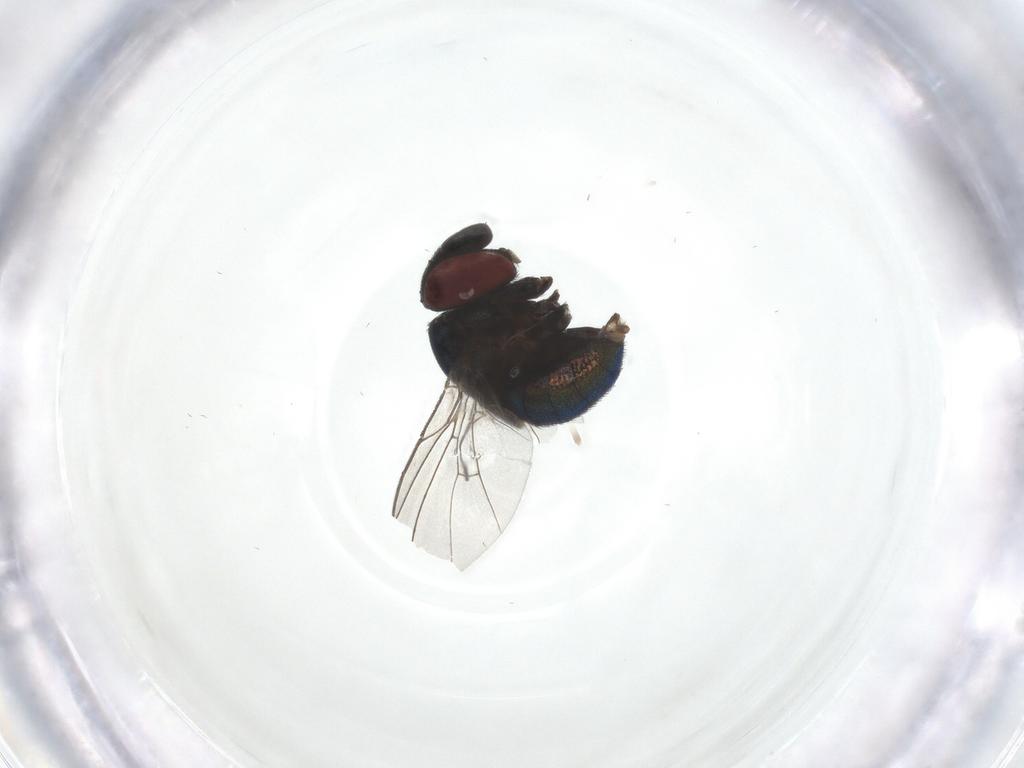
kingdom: Animalia
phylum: Arthropoda
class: Insecta
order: Diptera
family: Cryptochetidae
